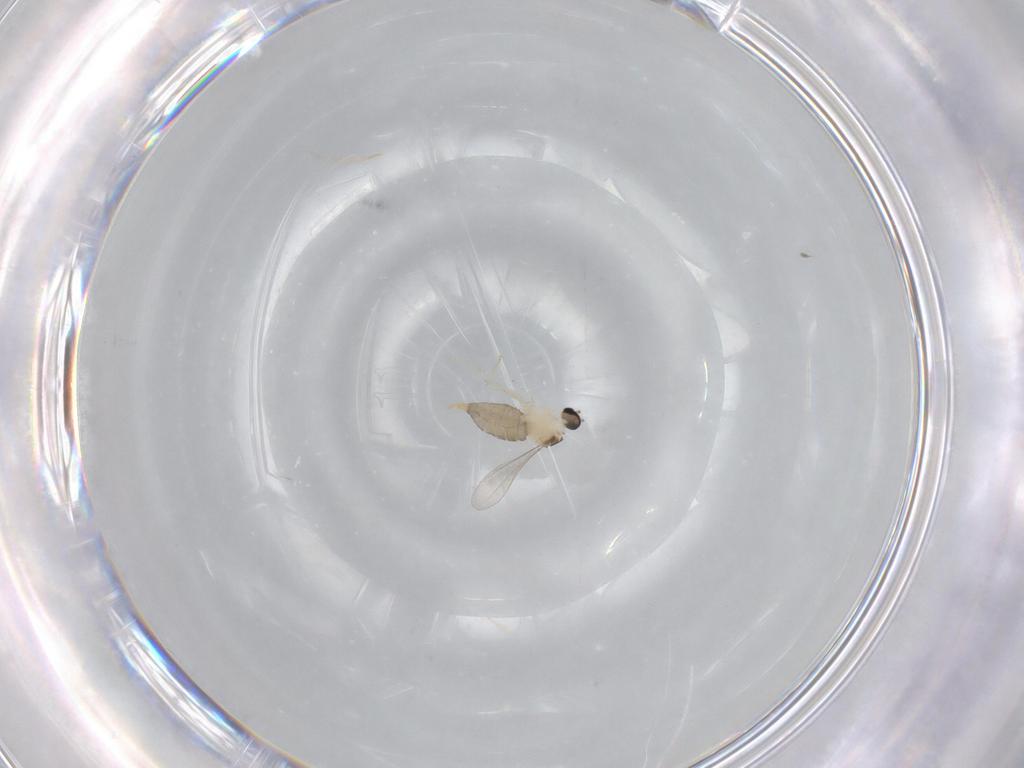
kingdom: Animalia
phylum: Arthropoda
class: Insecta
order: Diptera
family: Cecidomyiidae
